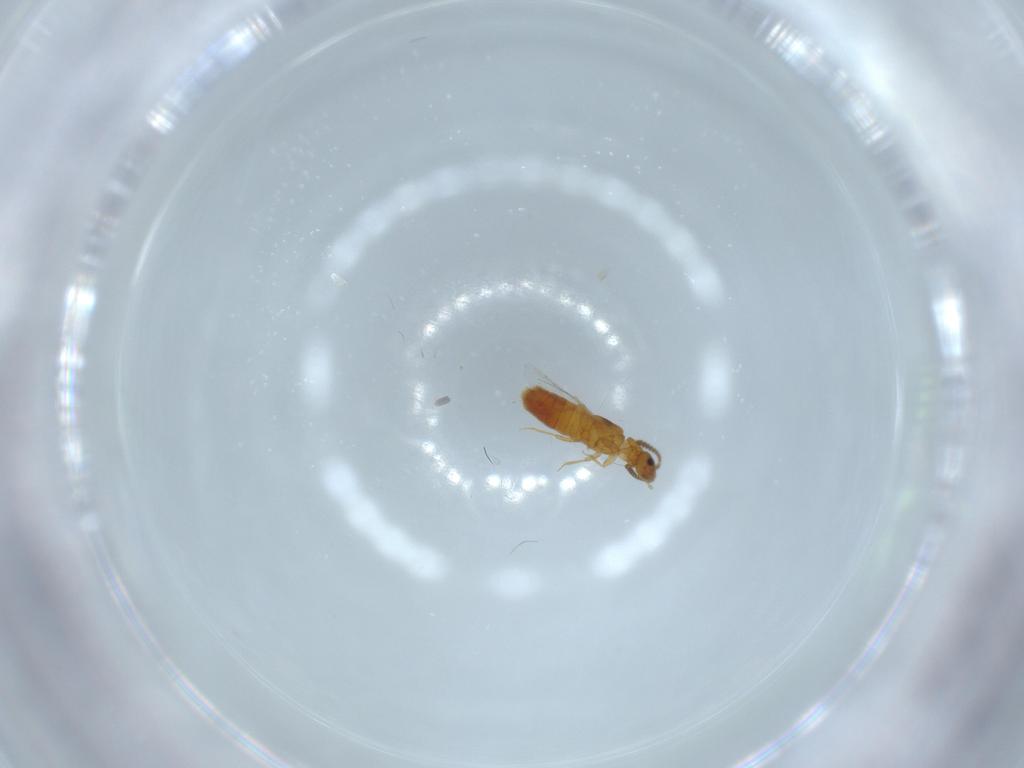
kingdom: Animalia
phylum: Arthropoda
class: Insecta
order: Coleoptera
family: Staphylinidae
